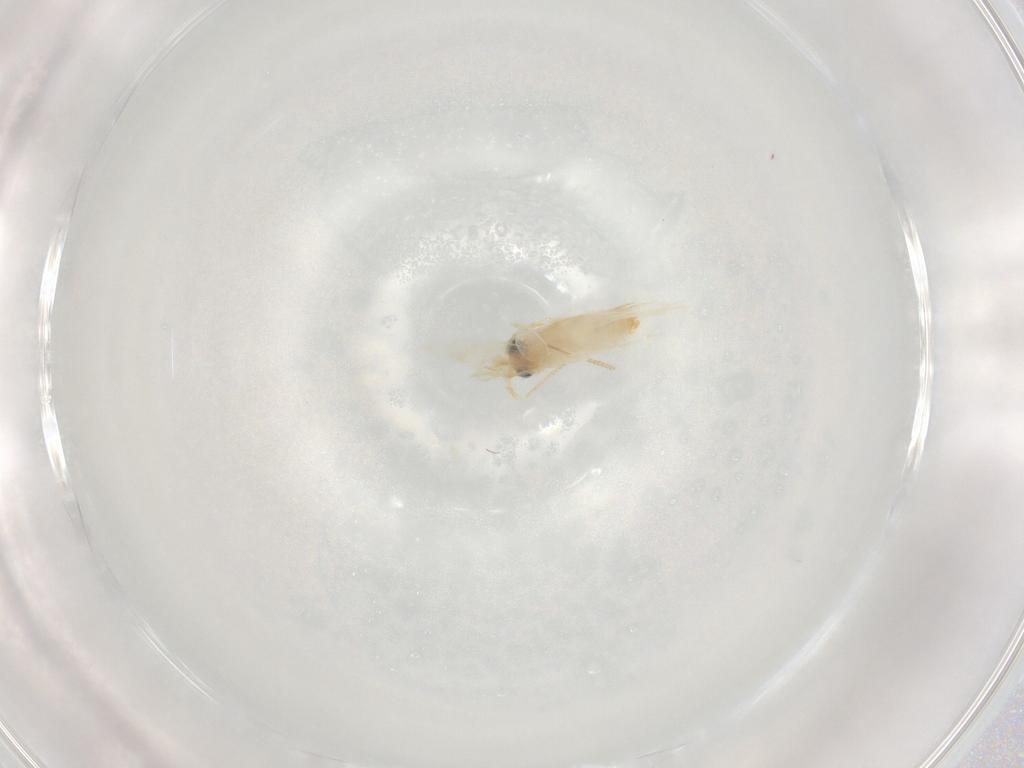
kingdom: Animalia
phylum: Arthropoda
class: Insecta
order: Lepidoptera
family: Nepticulidae
